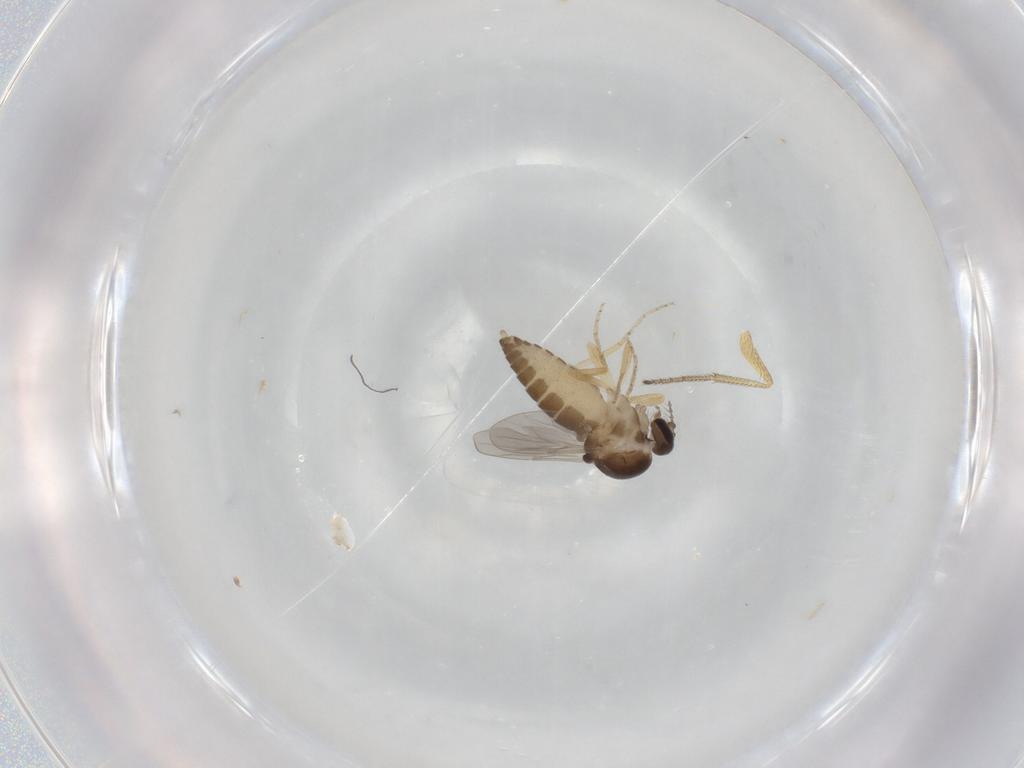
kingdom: Animalia
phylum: Arthropoda
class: Insecta
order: Diptera
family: Ceratopogonidae
